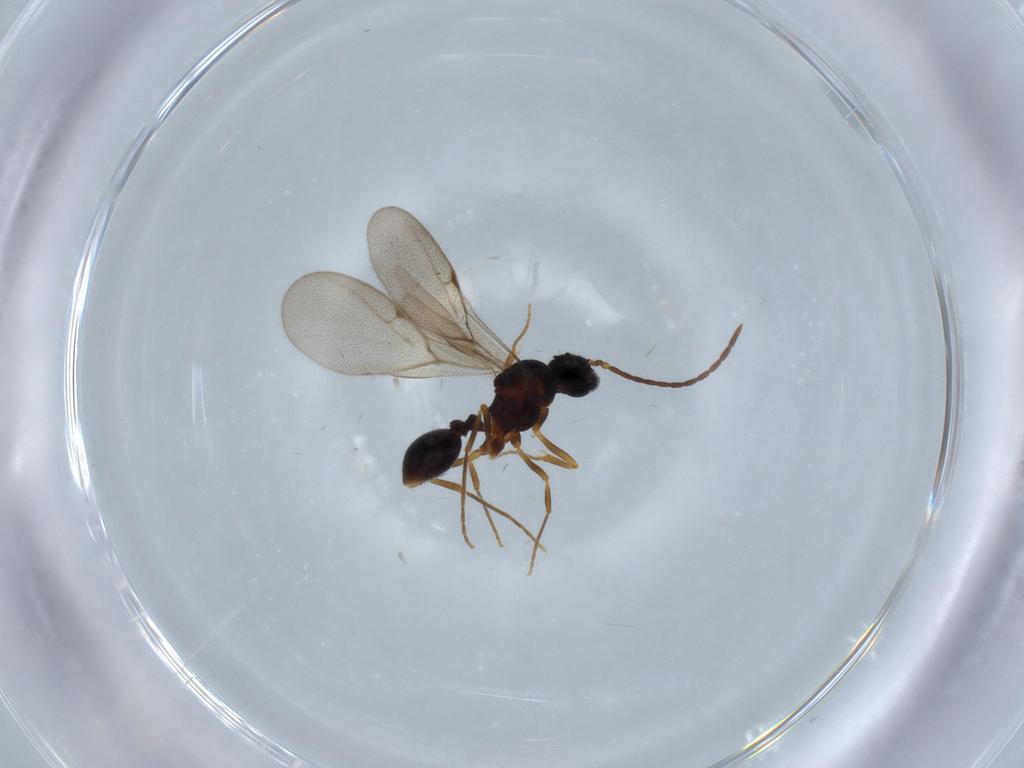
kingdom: Animalia
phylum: Arthropoda
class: Insecta
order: Hymenoptera
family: Formicidae
